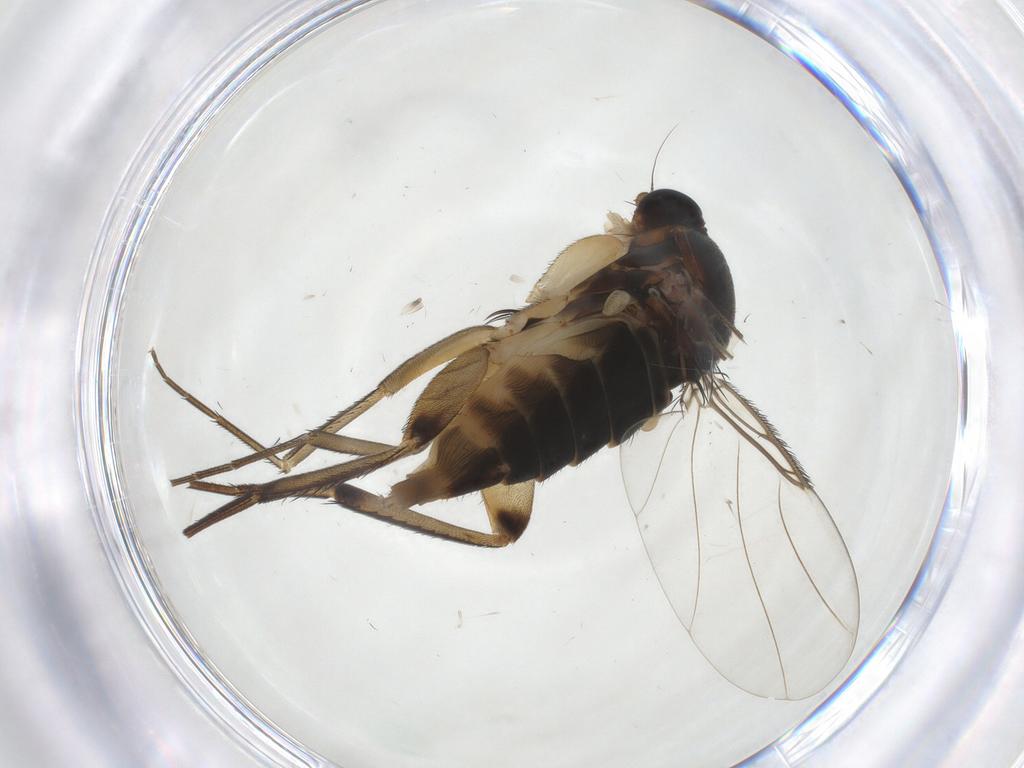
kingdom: Animalia
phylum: Arthropoda
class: Insecta
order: Diptera
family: Phoridae
